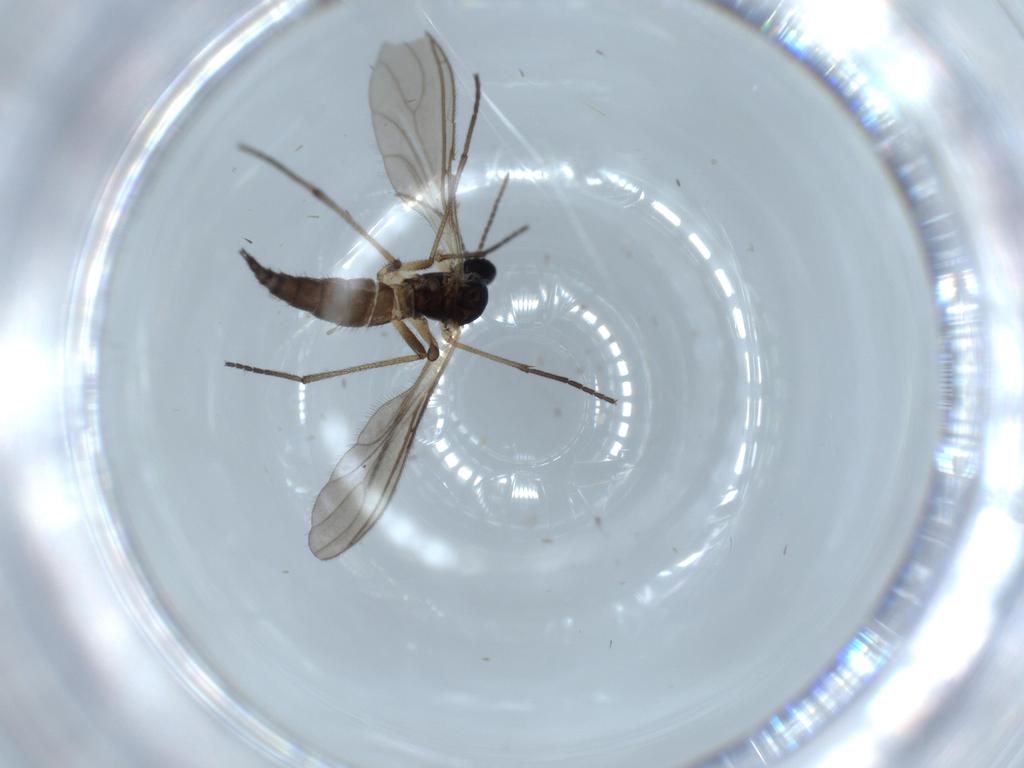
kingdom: Animalia
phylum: Arthropoda
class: Insecta
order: Diptera
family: Sciaridae
